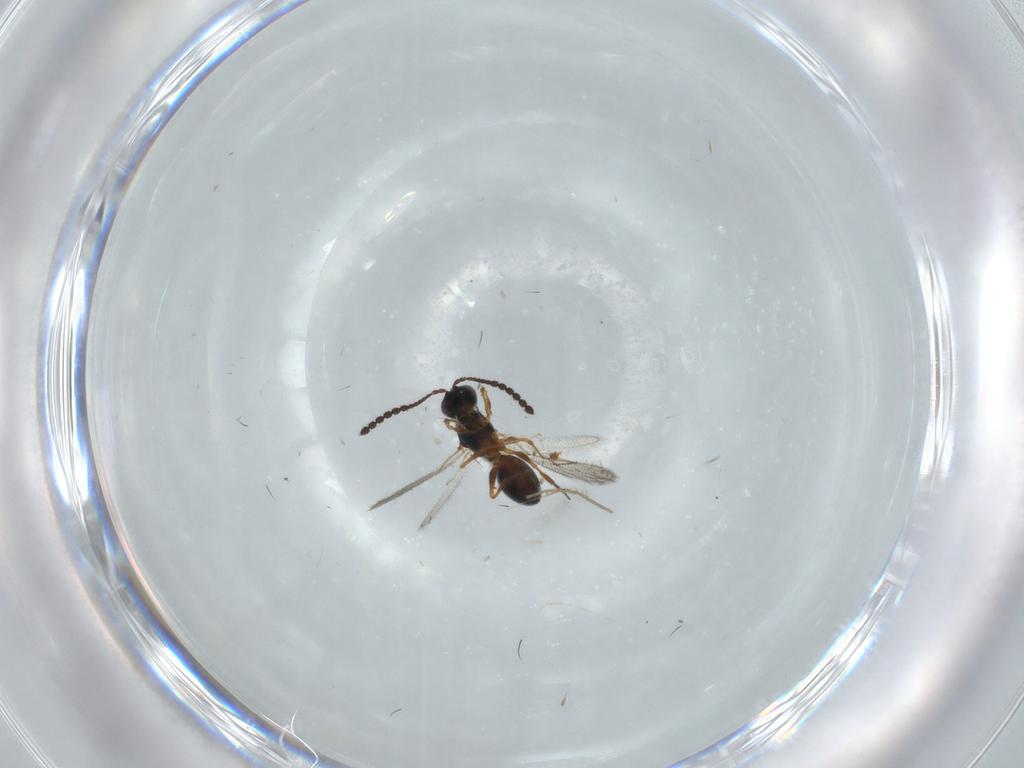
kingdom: Animalia
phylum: Arthropoda
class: Insecta
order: Hymenoptera
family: Figitidae
